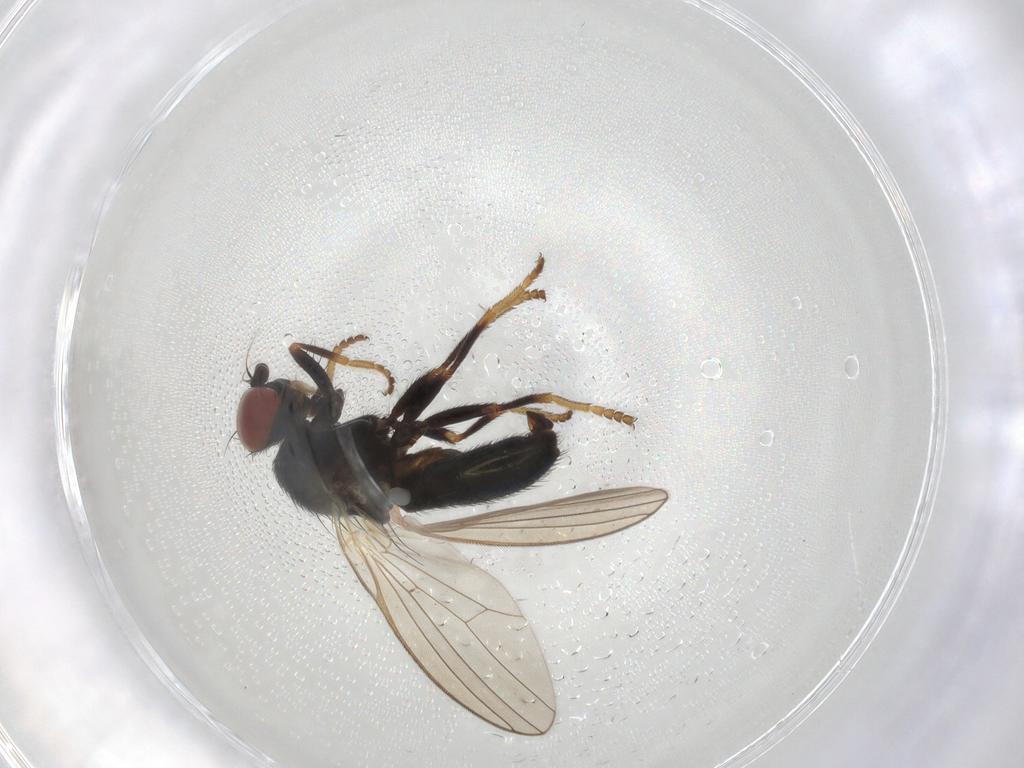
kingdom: Animalia
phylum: Arthropoda
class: Insecta
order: Diptera
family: Chamaemyiidae
